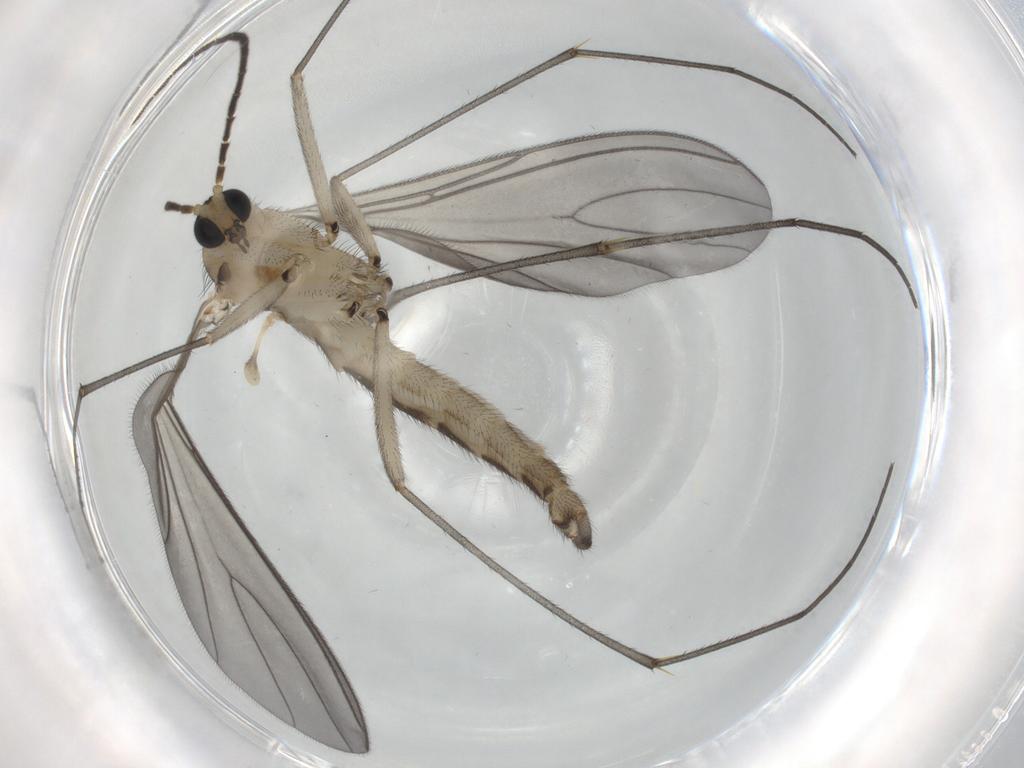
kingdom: Animalia
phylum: Arthropoda
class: Insecta
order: Diptera
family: Sciaridae
